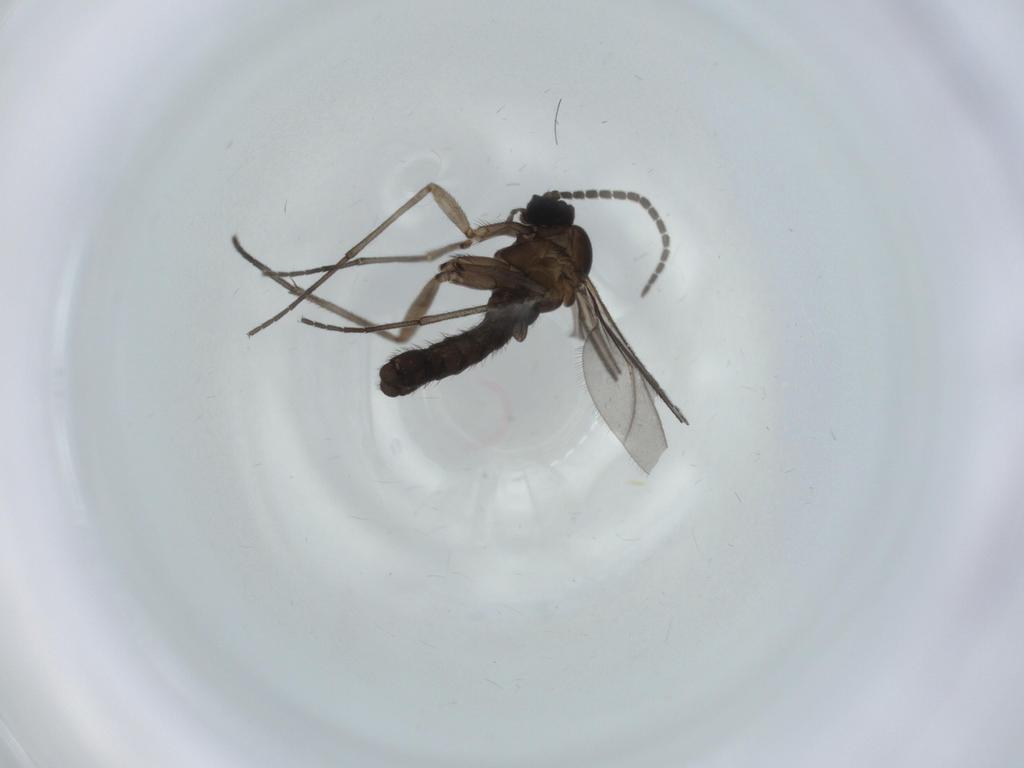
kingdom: Animalia
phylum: Arthropoda
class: Insecta
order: Diptera
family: Sciaridae
